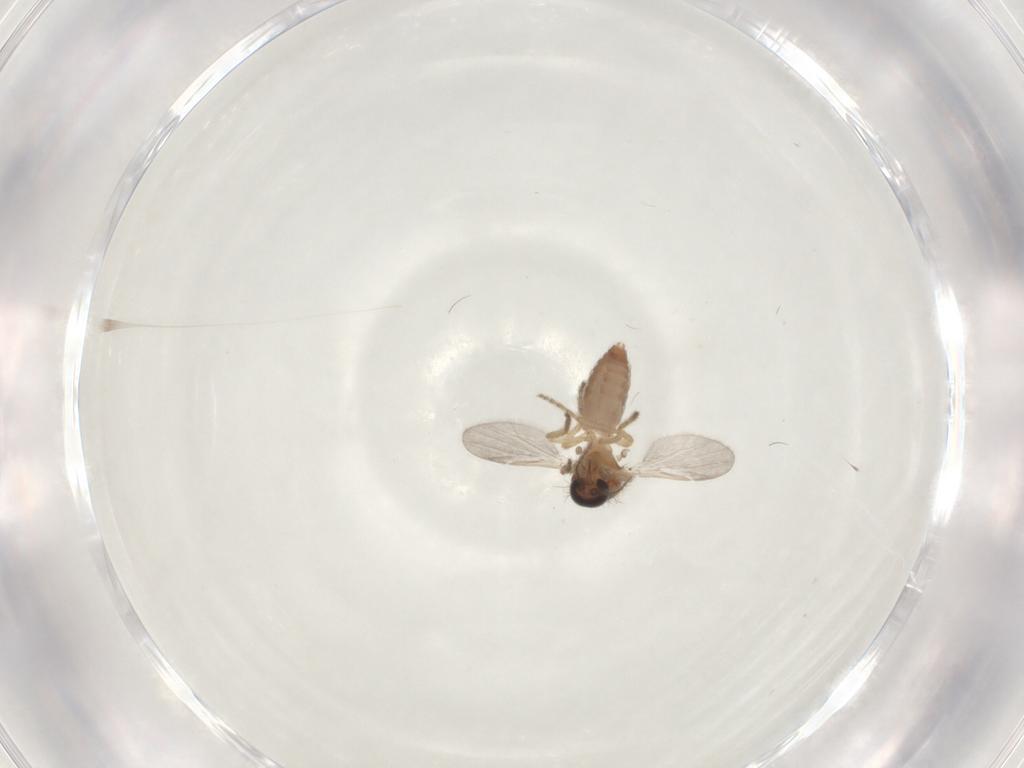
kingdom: Animalia
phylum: Arthropoda
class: Insecta
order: Diptera
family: Ceratopogonidae
